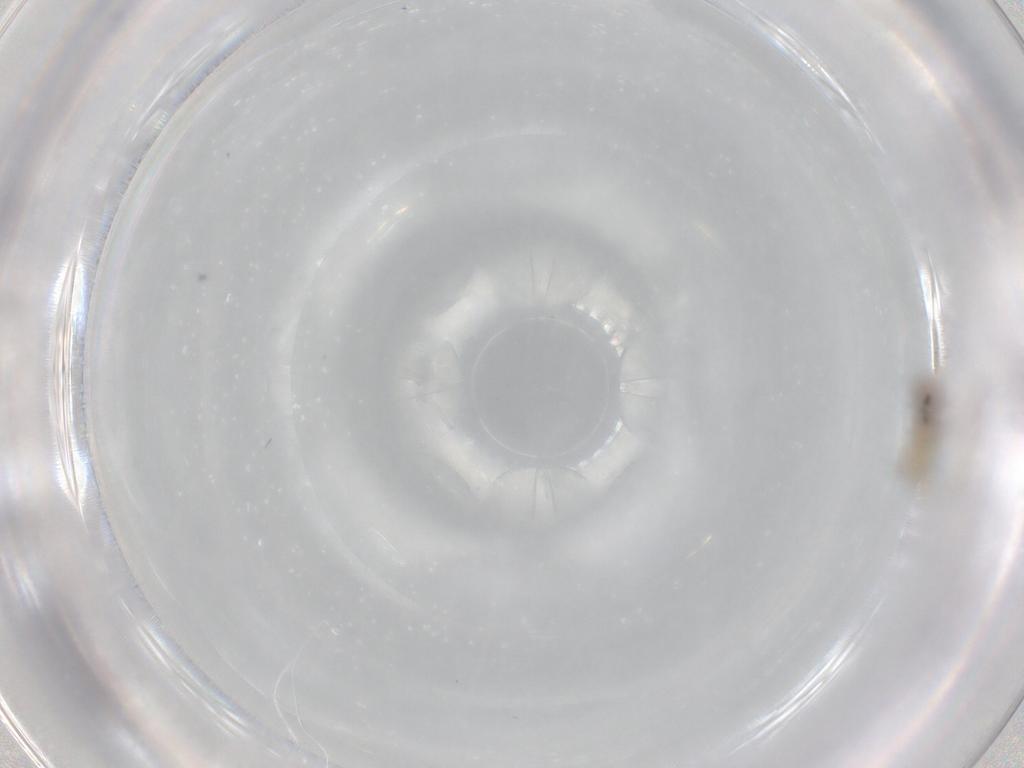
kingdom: Animalia
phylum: Arthropoda
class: Insecta
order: Diptera
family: Chironomidae
